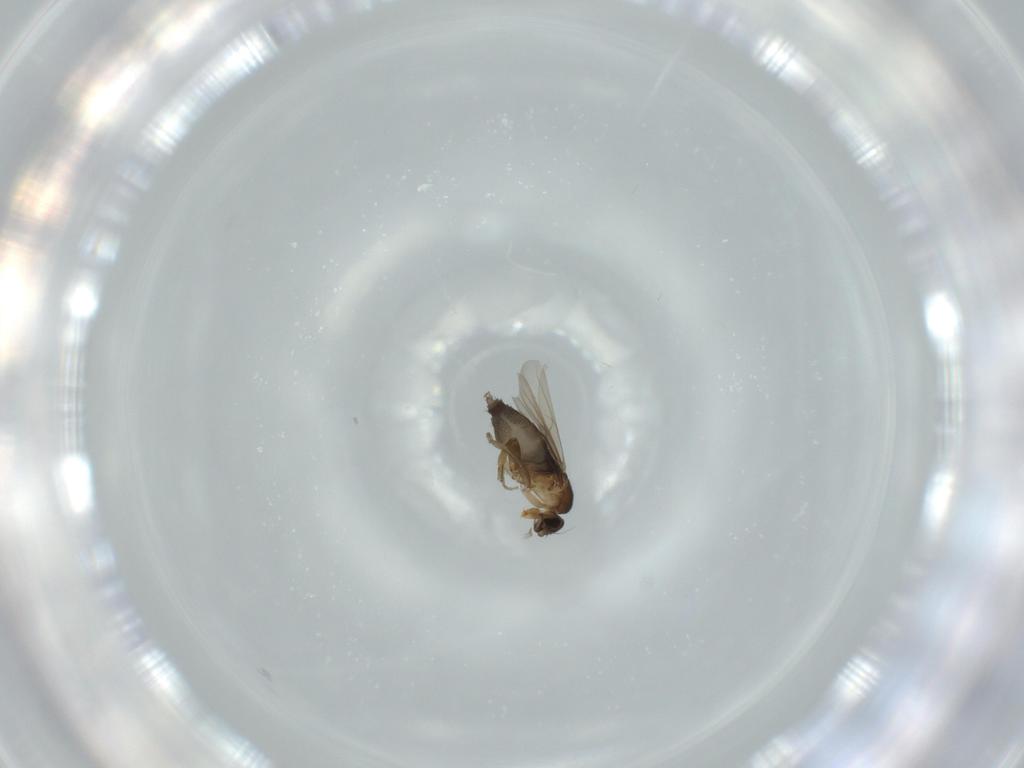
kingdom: Animalia
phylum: Arthropoda
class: Insecta
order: Diptera
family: Phoridae
